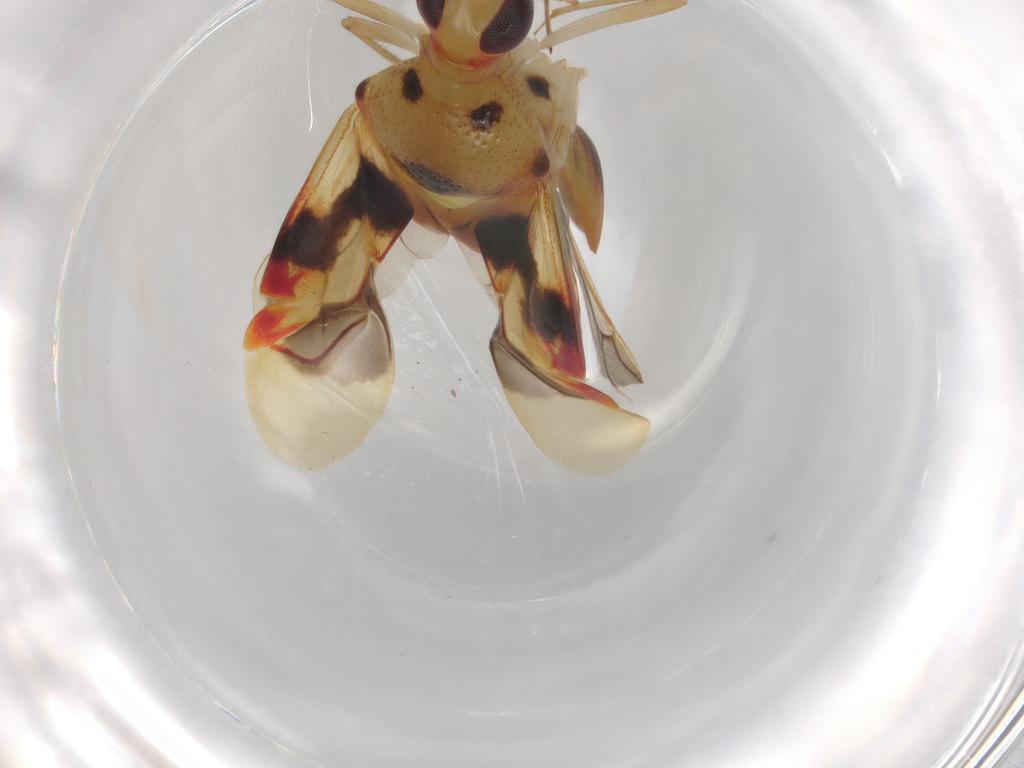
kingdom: Animalia
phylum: Arthropoda
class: Insecta
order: Hemiptera
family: Miridae
